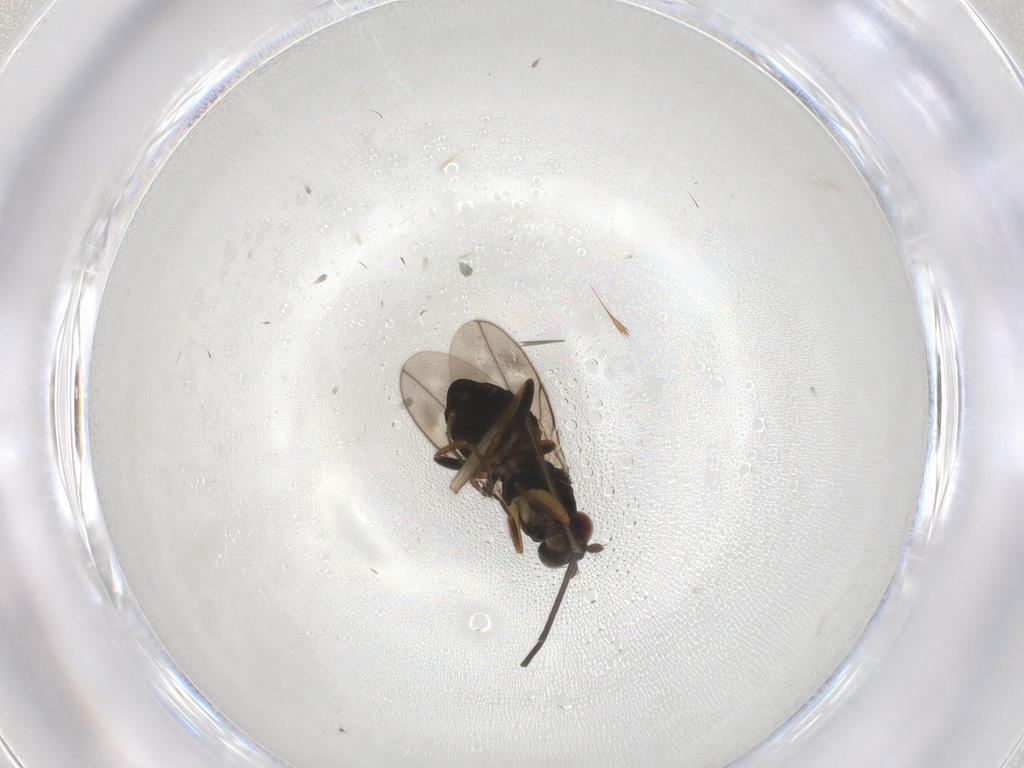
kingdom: Animalia
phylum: Arthropoda
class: Insecta
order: Diptera
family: Sphaeroceridae
